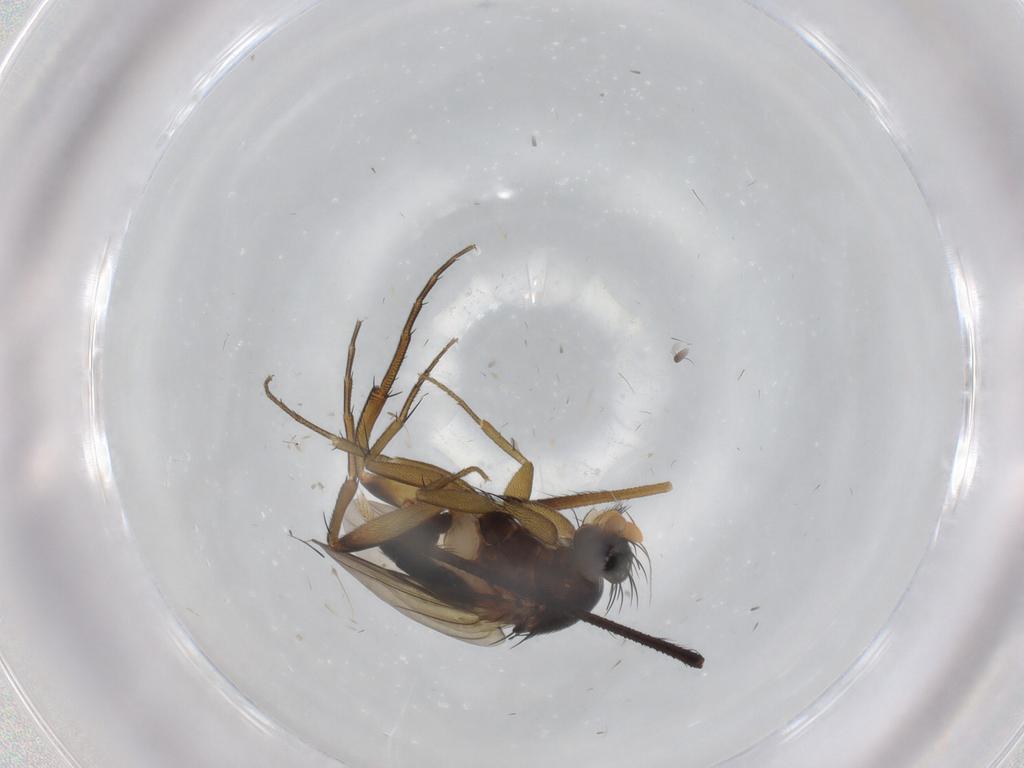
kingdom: Animalia
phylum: Arthropoda
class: Insecta
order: Diptera
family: Phoridae
